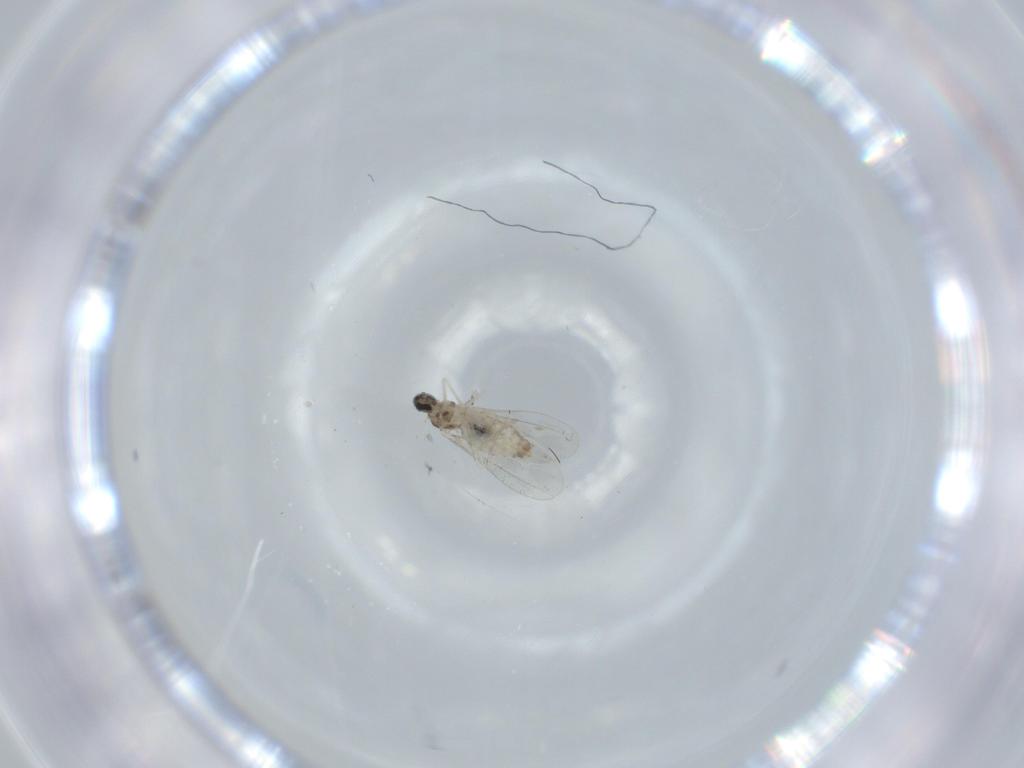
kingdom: Animalia
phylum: Arthropoda
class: Insecta
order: Diptera
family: Cecidomyiidae
